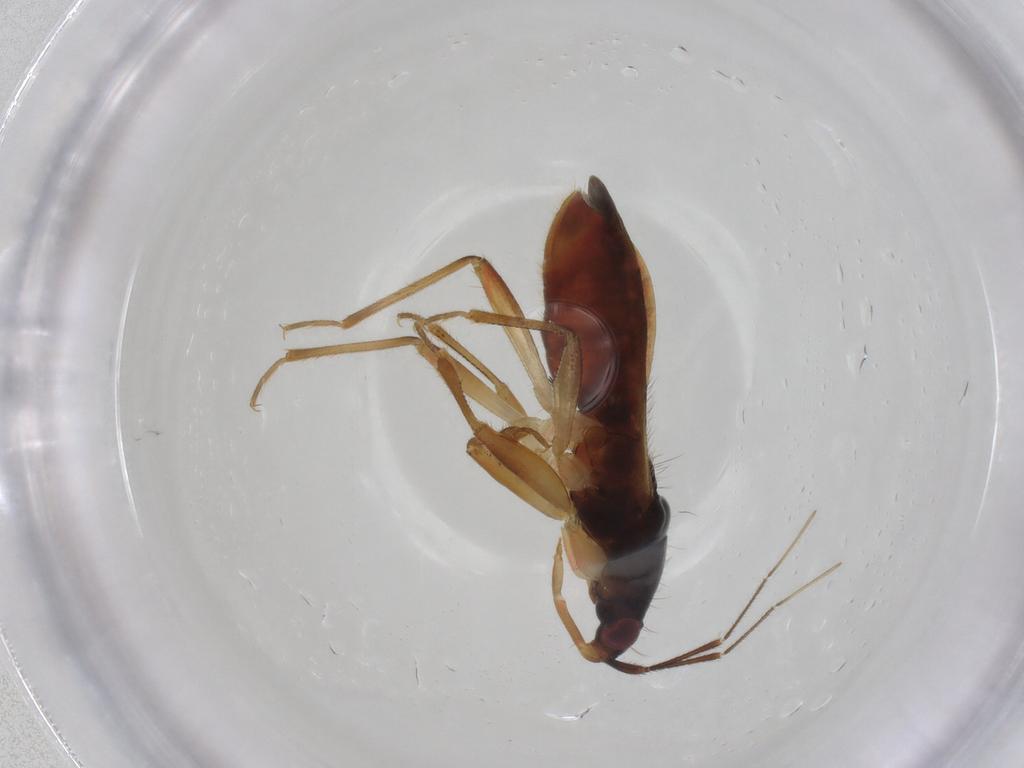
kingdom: Animalia
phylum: Arthropoda
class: Insecta
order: Hemiptera
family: Nabidae
